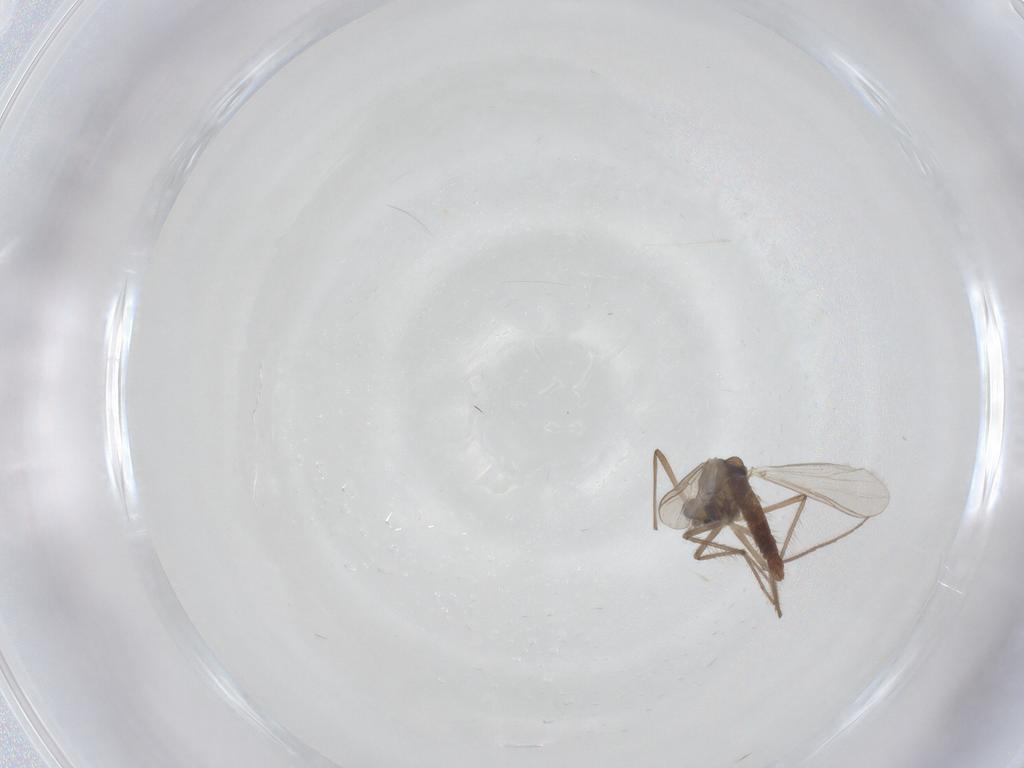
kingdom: Animalia
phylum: Arthropoda
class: Insecta
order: Diptera
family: Chironomidae
